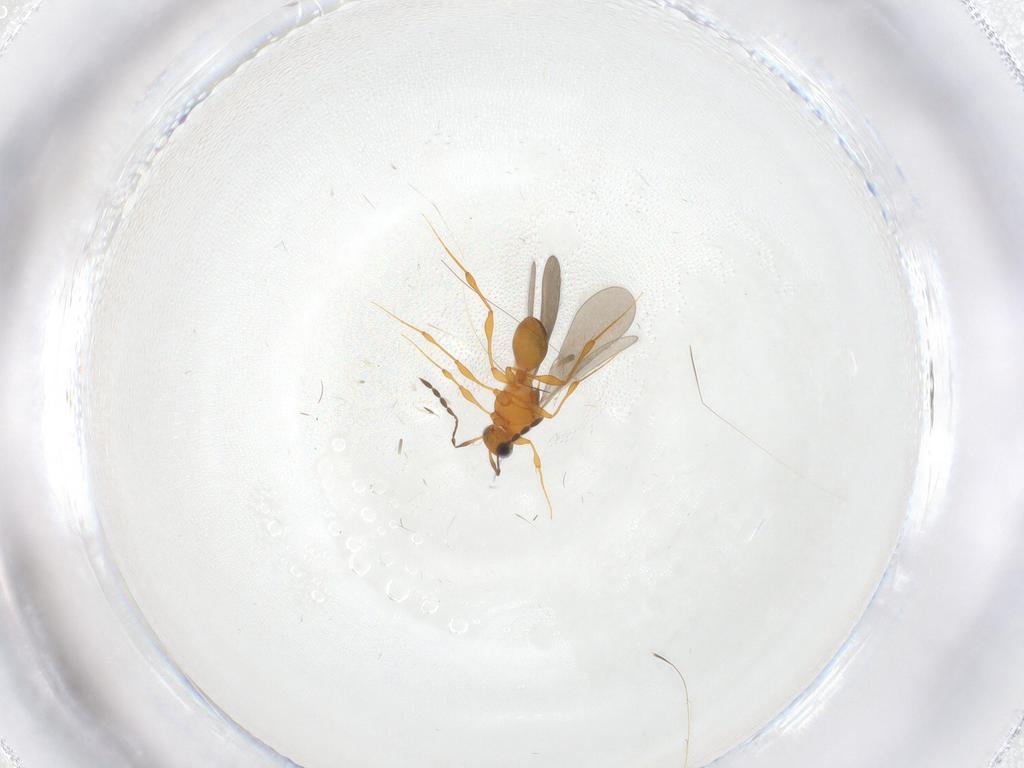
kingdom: Animalia
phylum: Arthropoda
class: Insecta
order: Hymenoptera
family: Platygastridae
